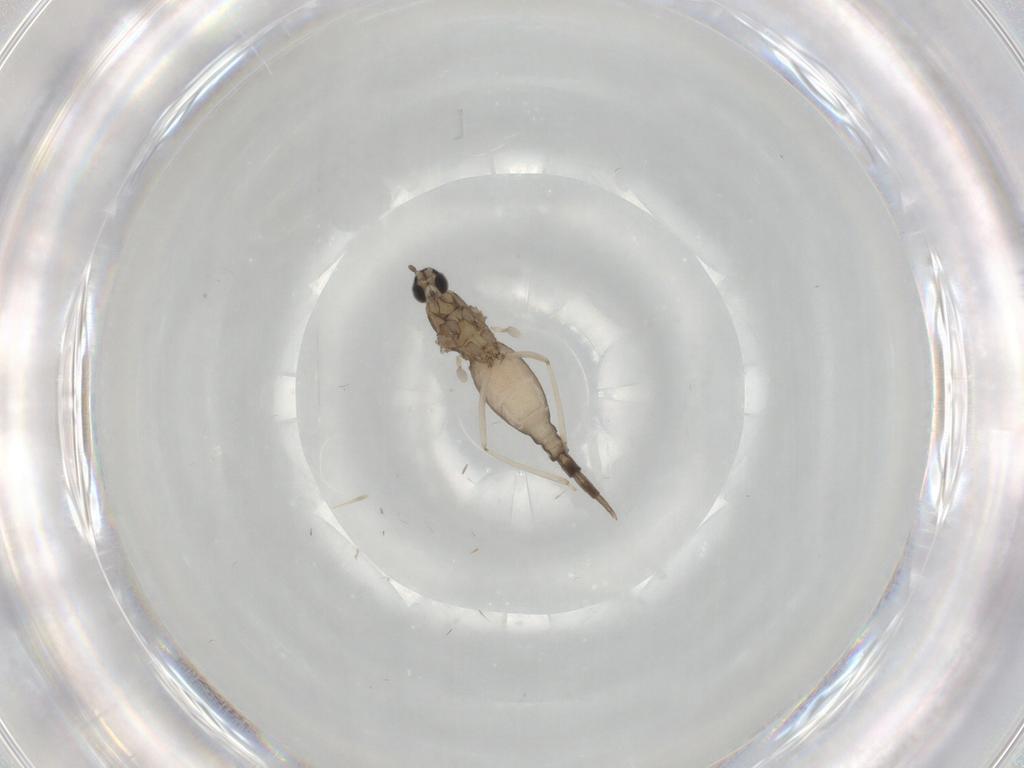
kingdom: Animalia
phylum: Arthropoda
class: Insecta
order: Diptera
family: Cecidomyiidae
